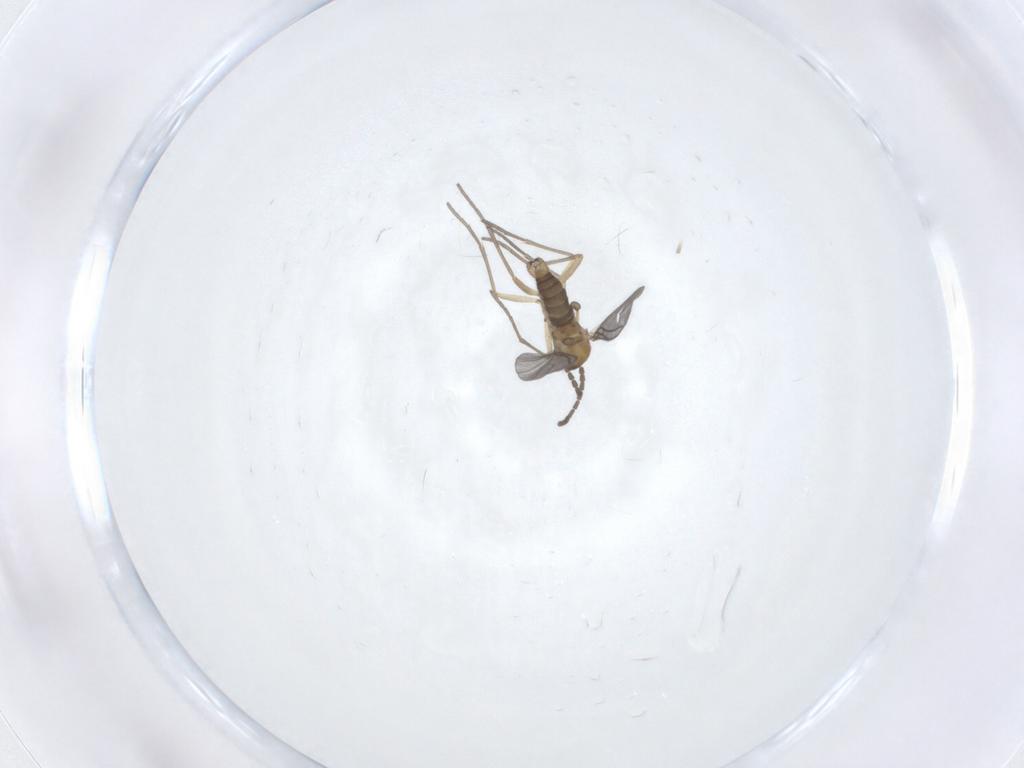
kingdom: Animalia
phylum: Arthropoda
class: Insecta
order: Diptera
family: Sciaridae
